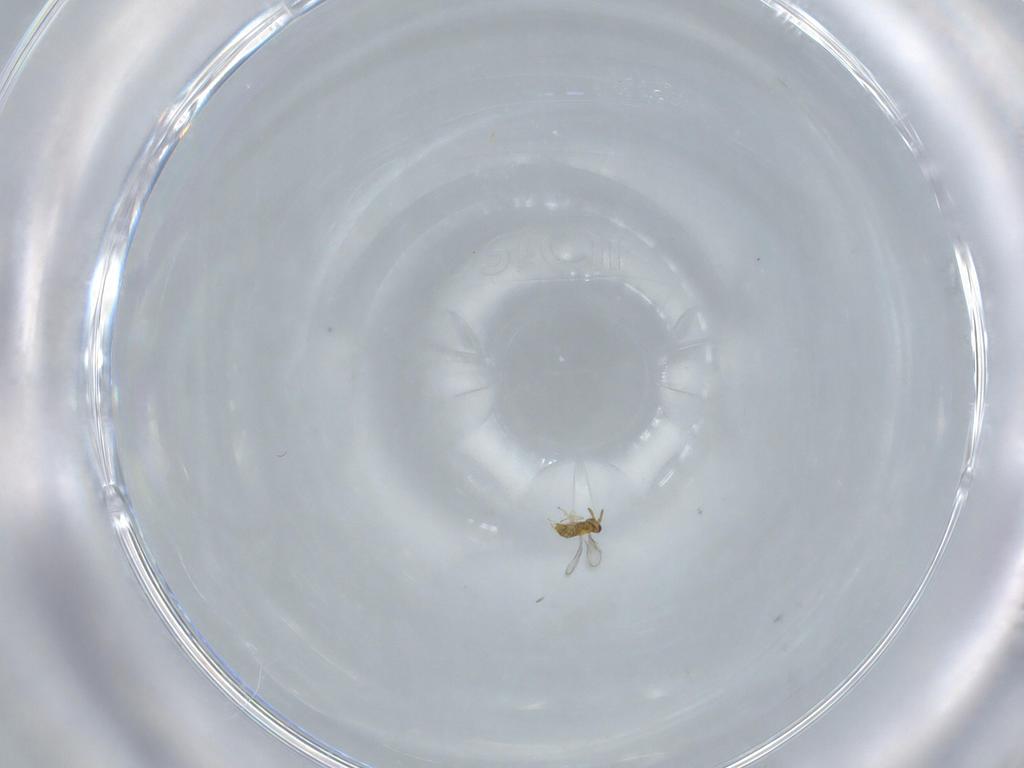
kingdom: Animalia
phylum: Arthropoda
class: Insecta
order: Hymenoptera
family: Aphelinidae
